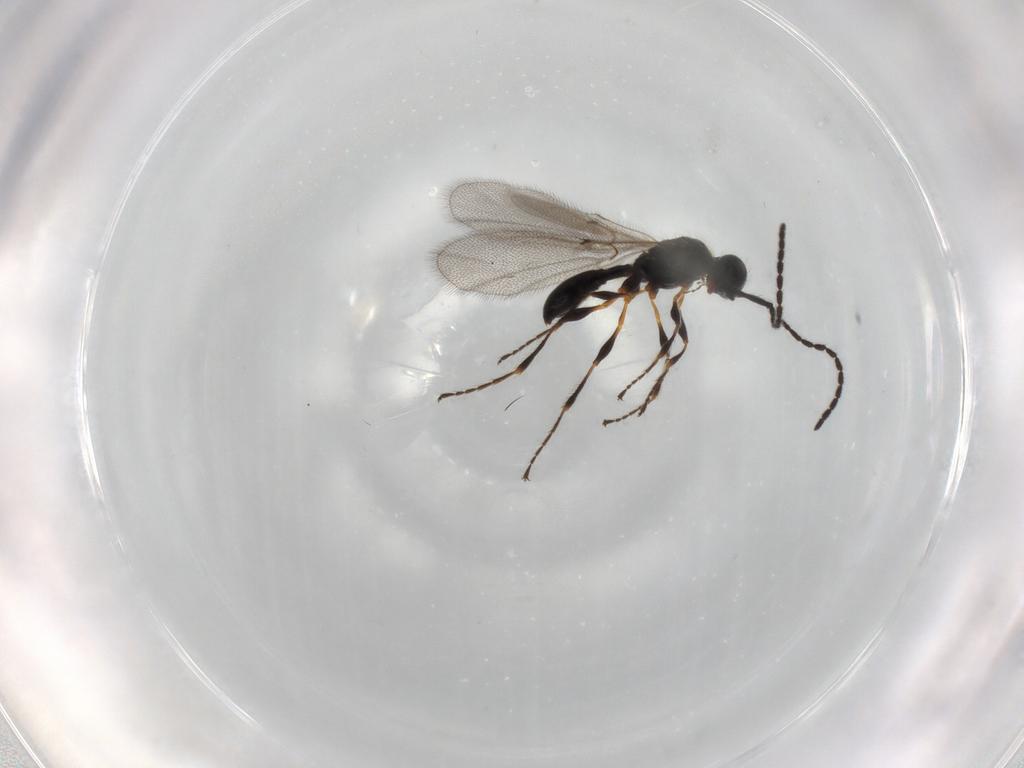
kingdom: Animalia
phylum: Arthropoda
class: Insecta
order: Hymenoptera
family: Diapriidae
